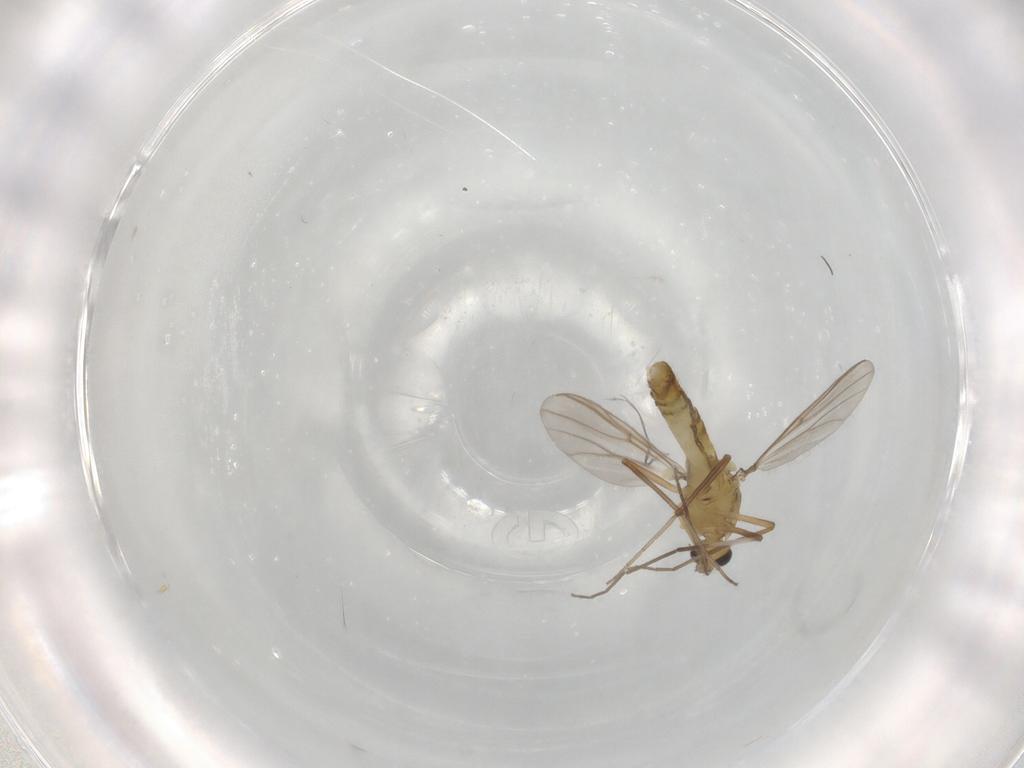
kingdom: Animalia
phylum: Arthropoda
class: Insecta
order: Diptera
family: Chironomidae
